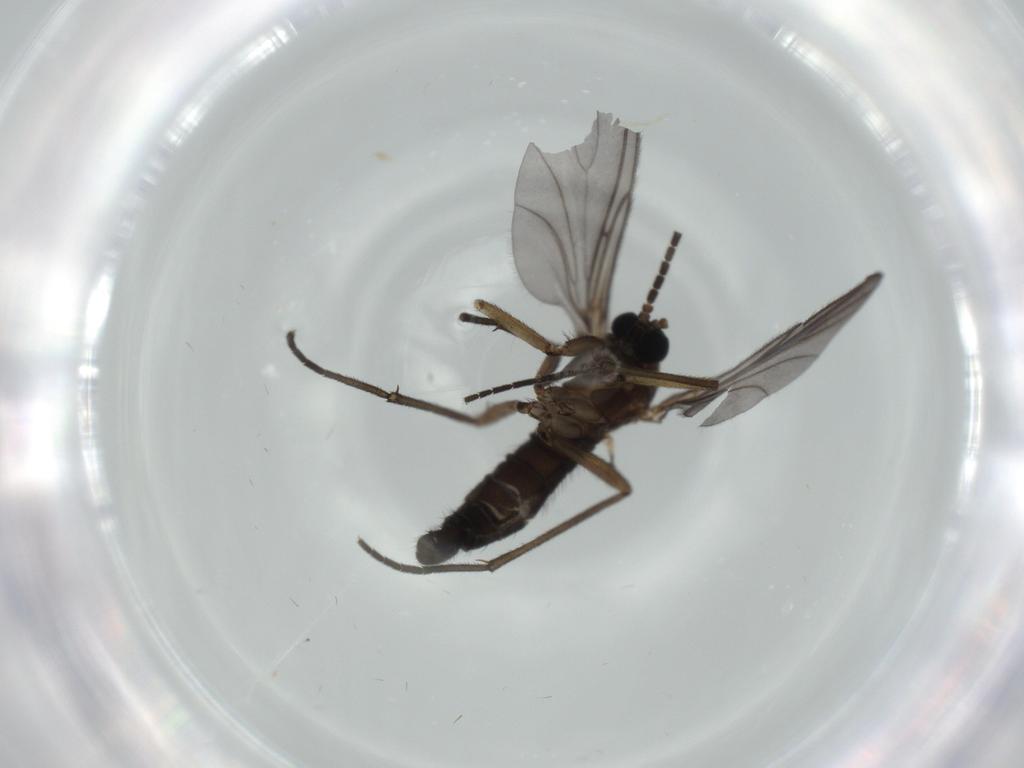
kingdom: Animalia
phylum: Arthropoda
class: Insecta
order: Diptera
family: Sciaridae
